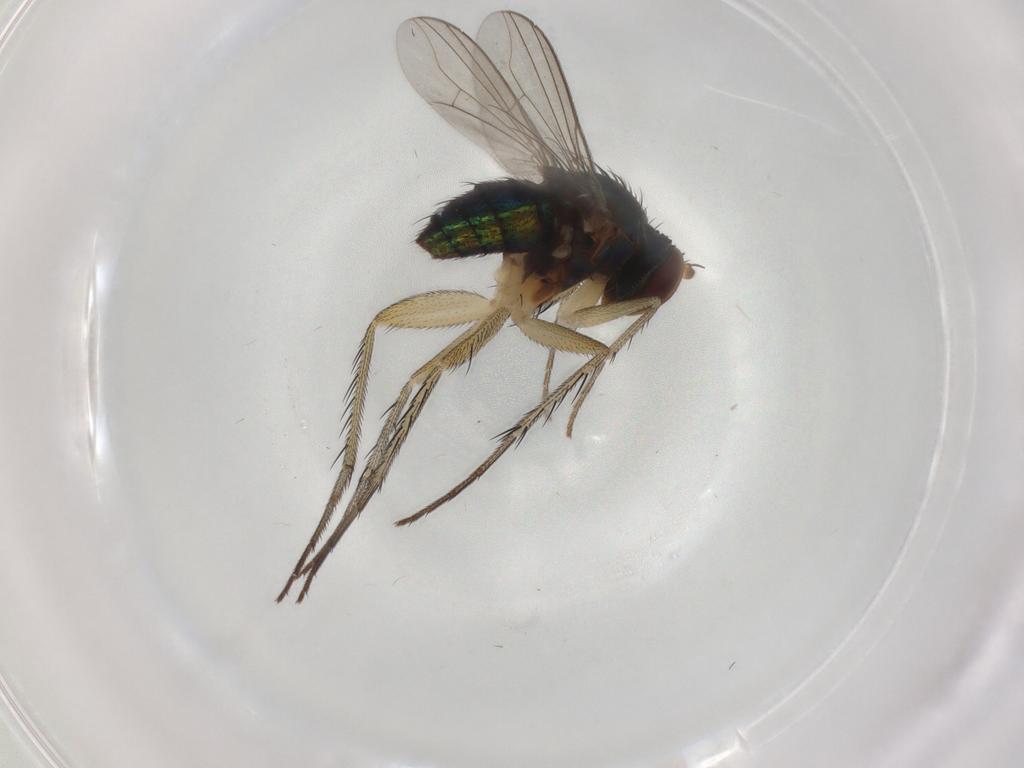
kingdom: Animalia
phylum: Arthropoda
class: Insecta
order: Diptera
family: Dolichopodidae
